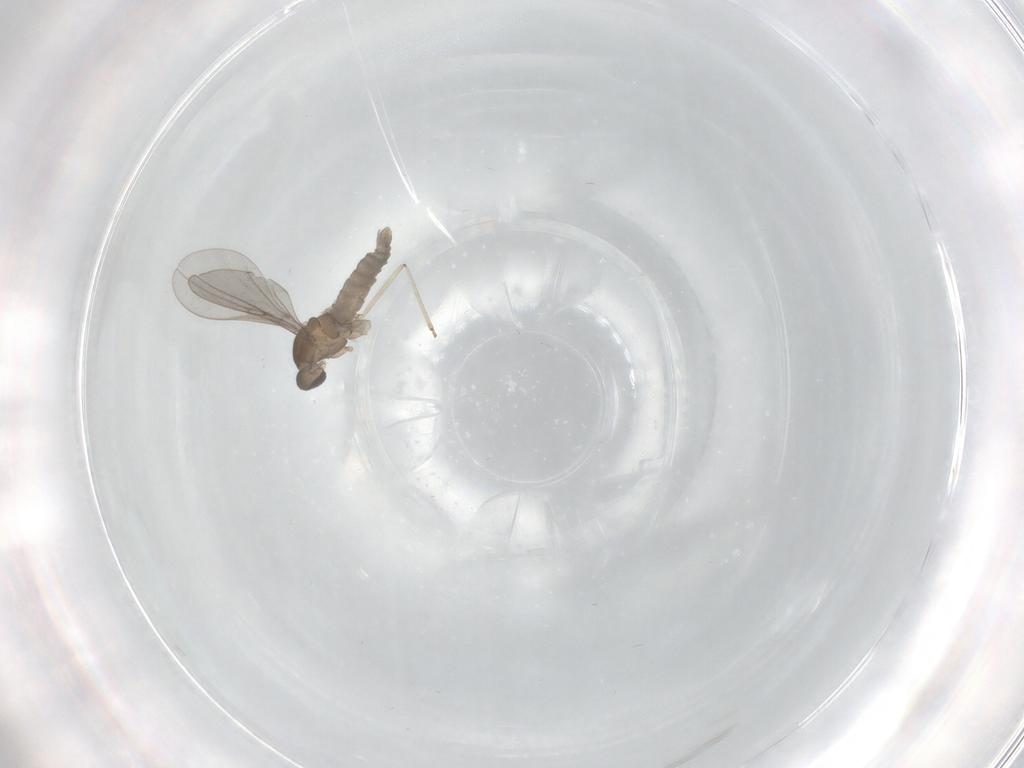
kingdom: Animalia
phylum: Arthropoda
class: Insecta
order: Diptera
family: Cecidomyiidae
